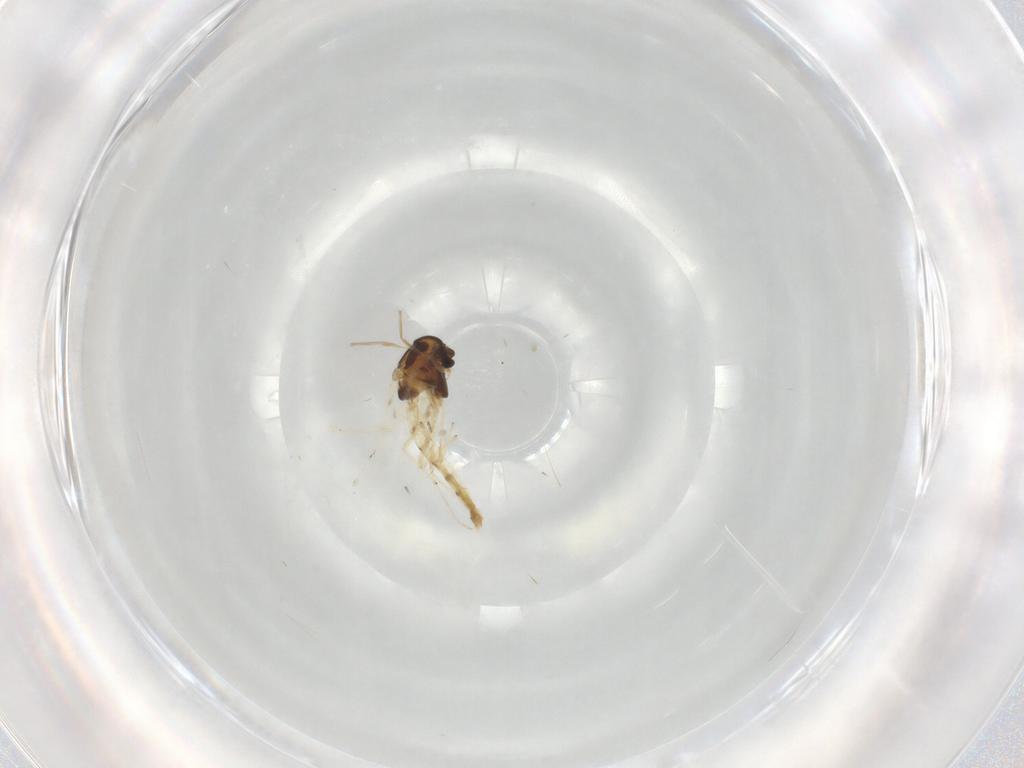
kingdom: Animalia
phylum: Arthropoda
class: Insecta
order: Diptera
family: Chironomidae
